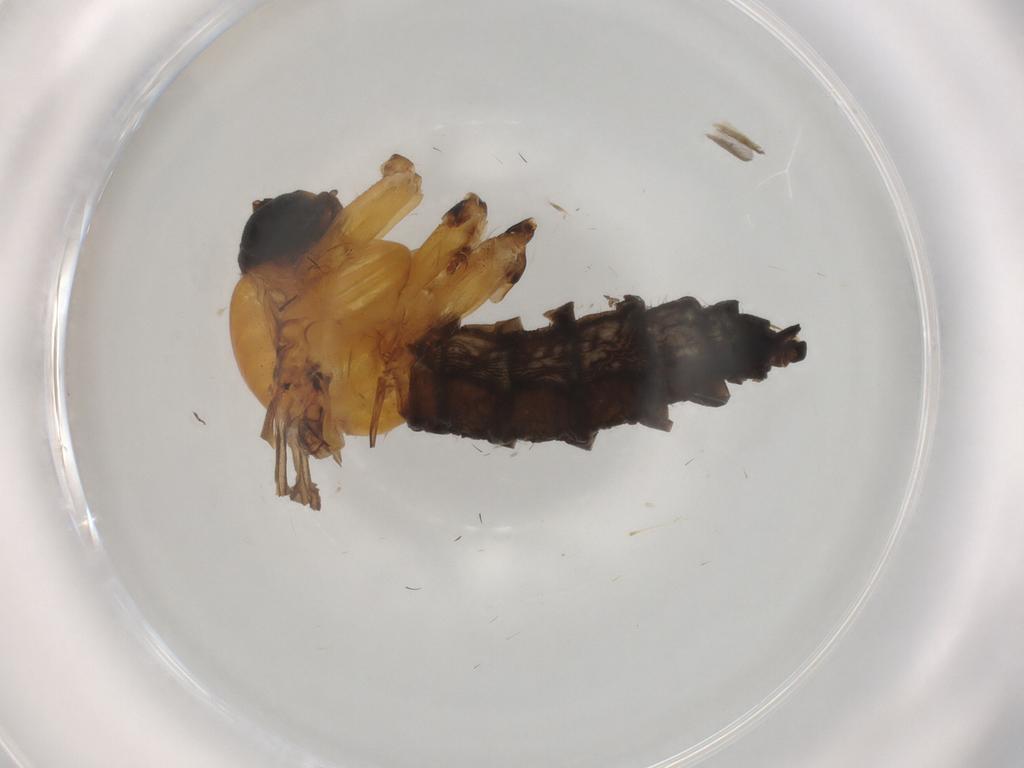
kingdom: Animalia
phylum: Arthropoda
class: Insecta
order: Diptera
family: Sciaridae
